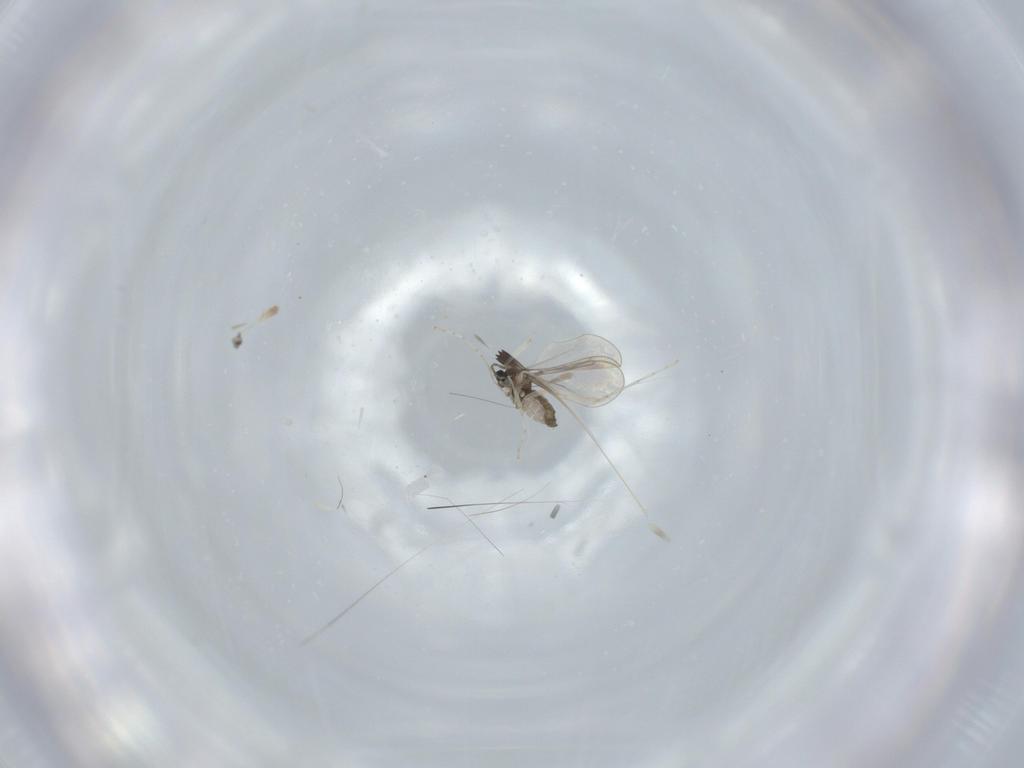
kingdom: Animalia
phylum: Arthropoda
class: Insecta
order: Diptera
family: Cecidomyiidae
